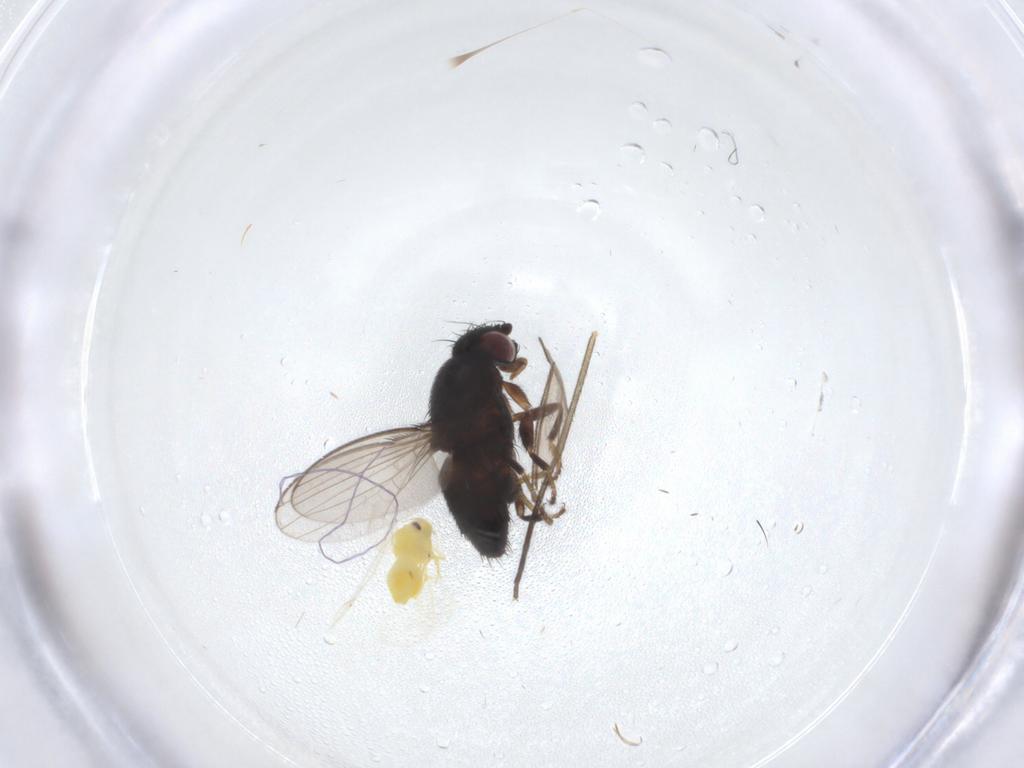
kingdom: Animalia
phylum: Arthropoda
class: Insecta
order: Diptera
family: Milichiidae
